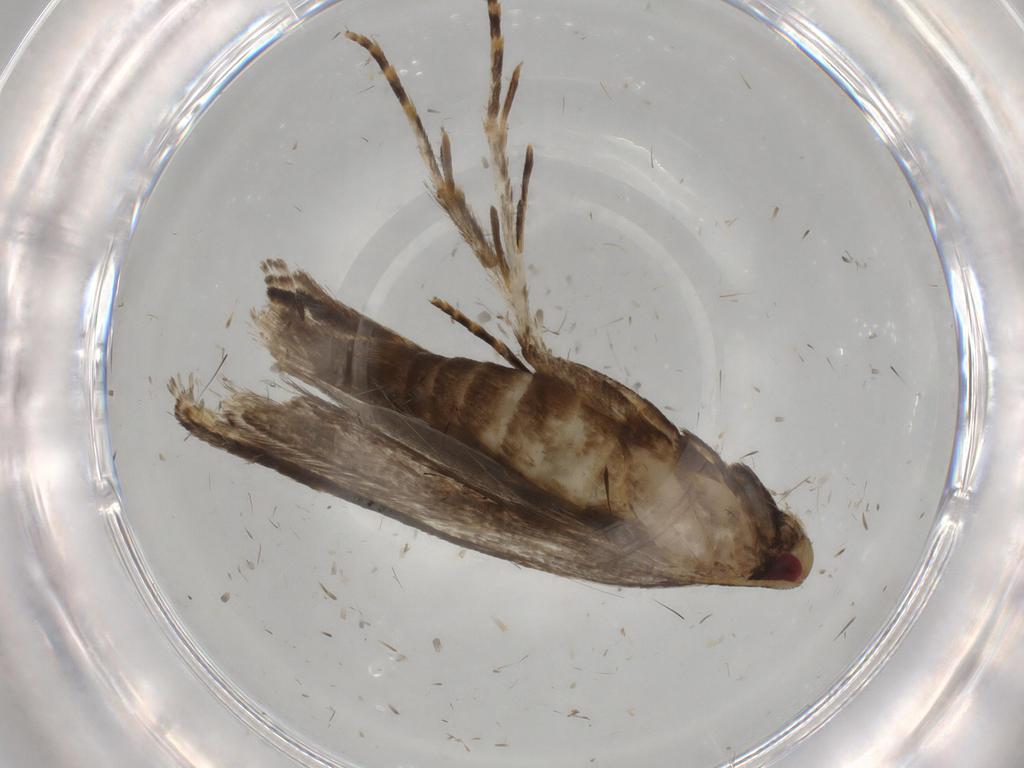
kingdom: Animalia
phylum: Arthropoda
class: Insecta
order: Lepidoptera
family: Gelechiidae
